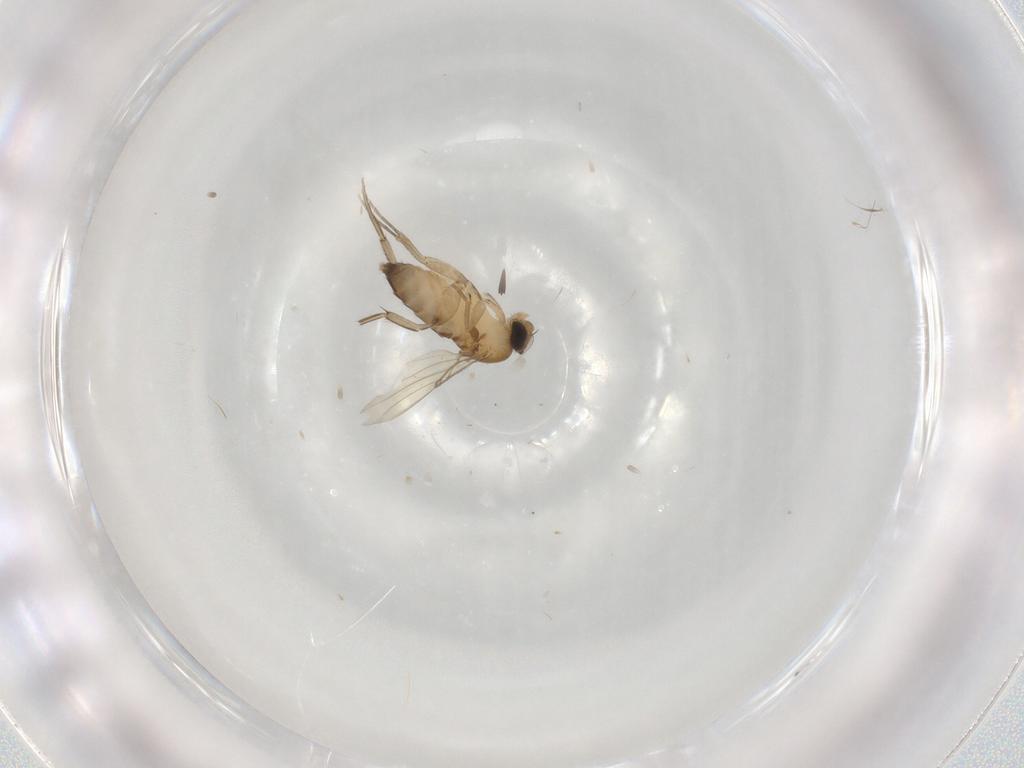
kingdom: Animalia
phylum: Arthropoda
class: Insecta
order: Diptera
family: Phoridae
